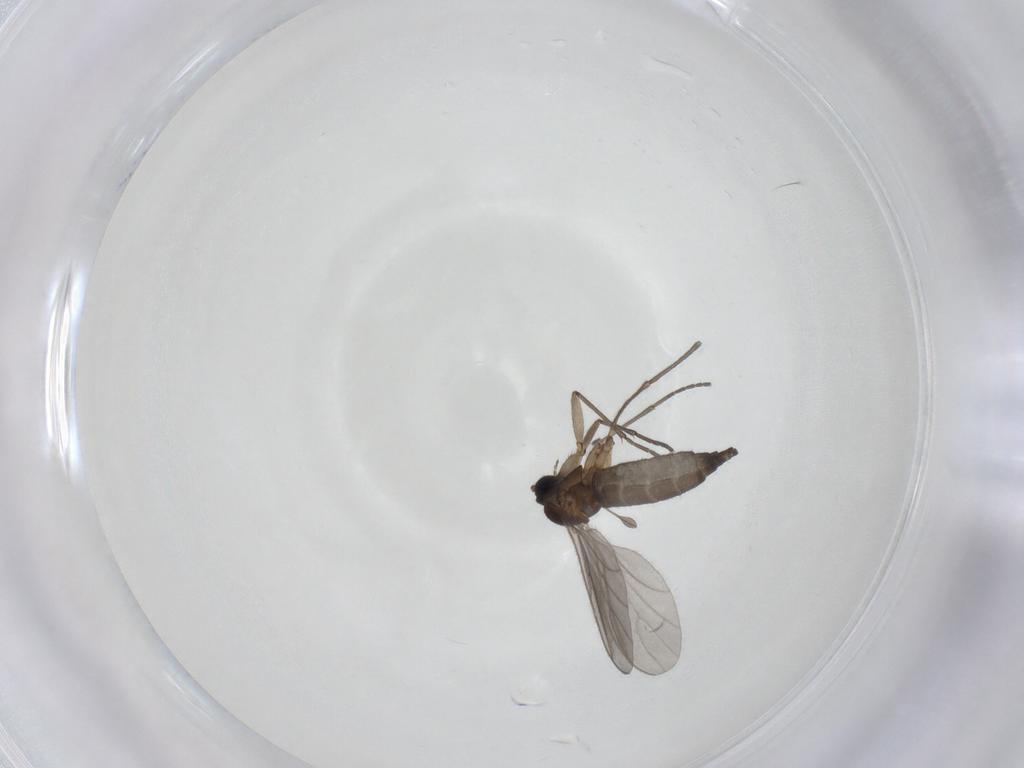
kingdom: Animalia
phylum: Arthropoda
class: Insecta
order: Diptera
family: Sciaridae
